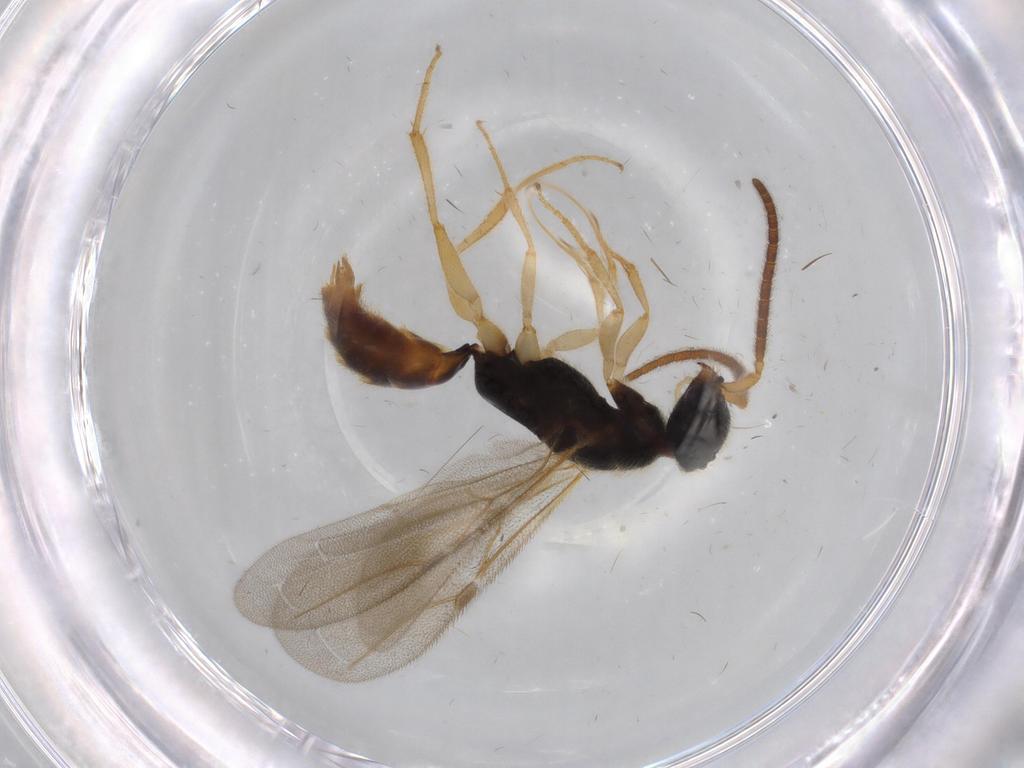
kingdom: Animalia
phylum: Arthropoda
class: Insecta
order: Hymenoptera
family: Bethylidae
